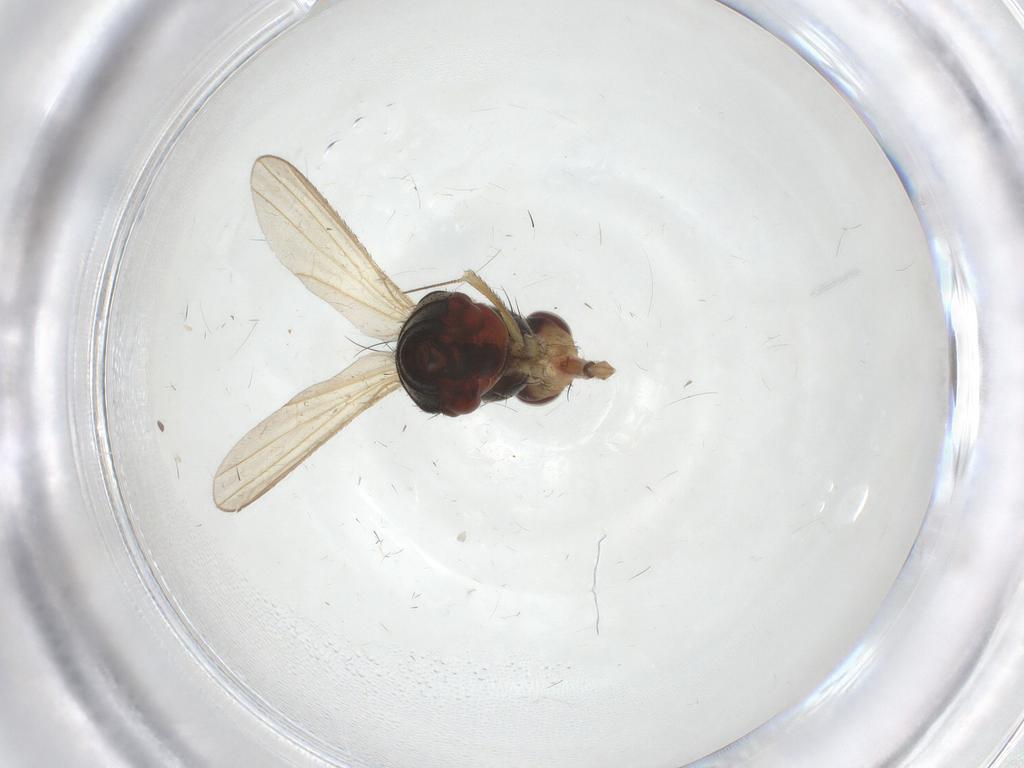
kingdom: Animalia
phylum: Arthropoda
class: Insecta
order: Diptera
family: Heleomyzidae
